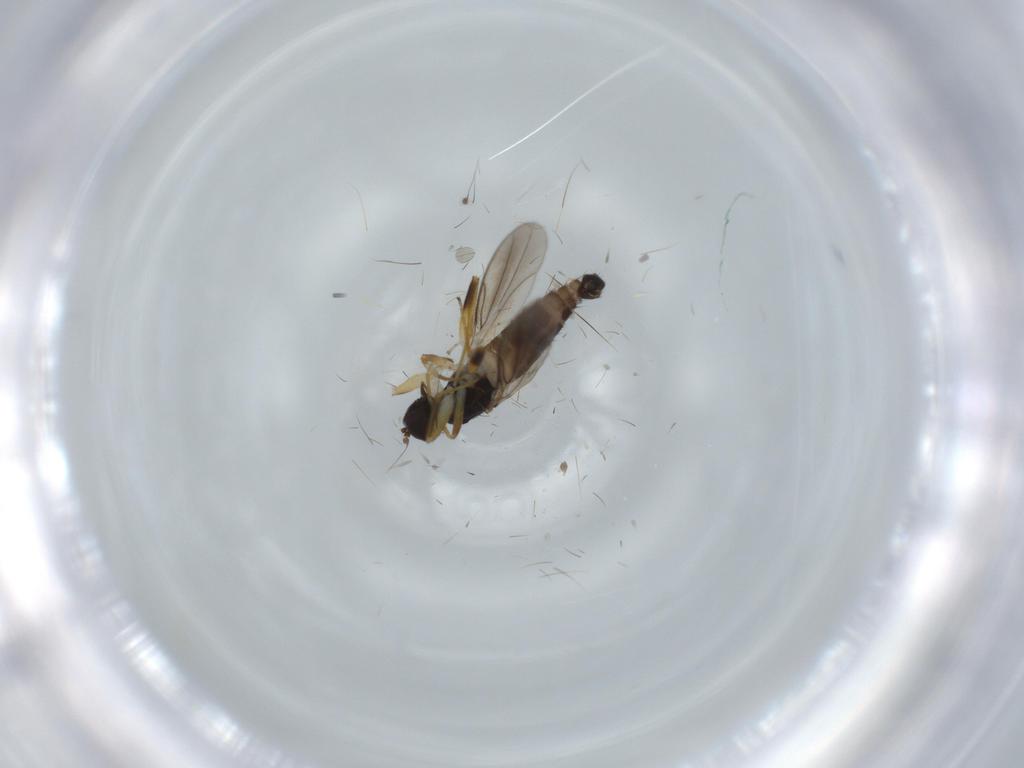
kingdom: Animalia
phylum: Arthropoda
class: Insecta
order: Diptera
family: Hybotidae
